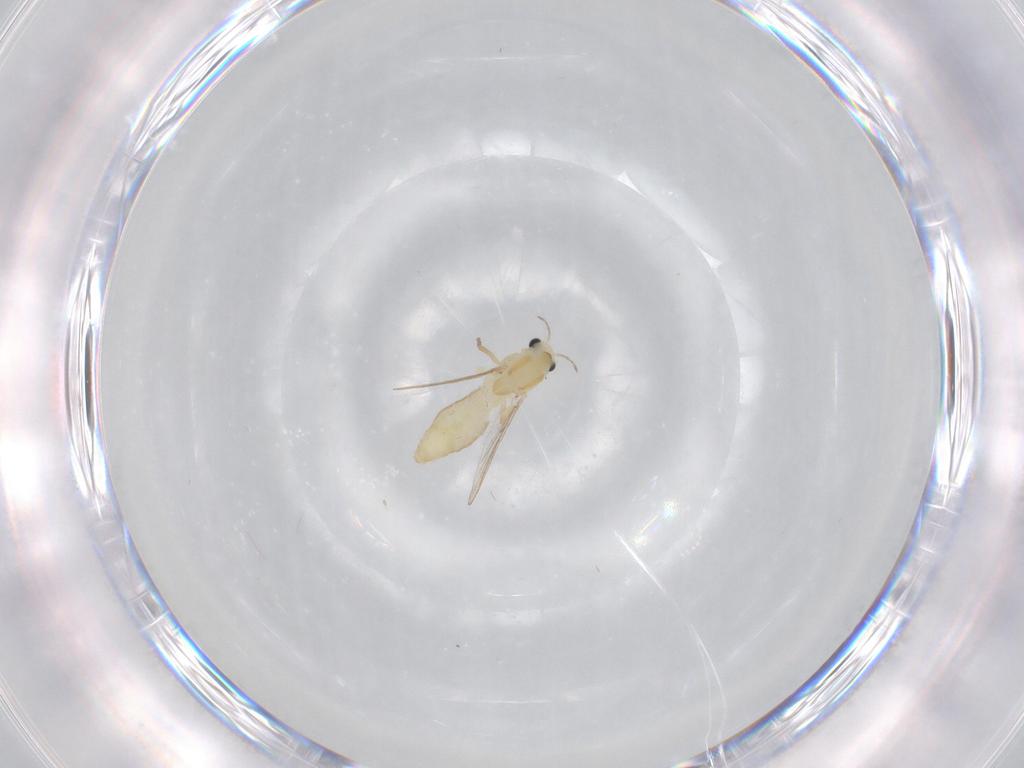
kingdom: Animalia
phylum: Arthropoda
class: Insecta
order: Diptera
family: Chironomidae
